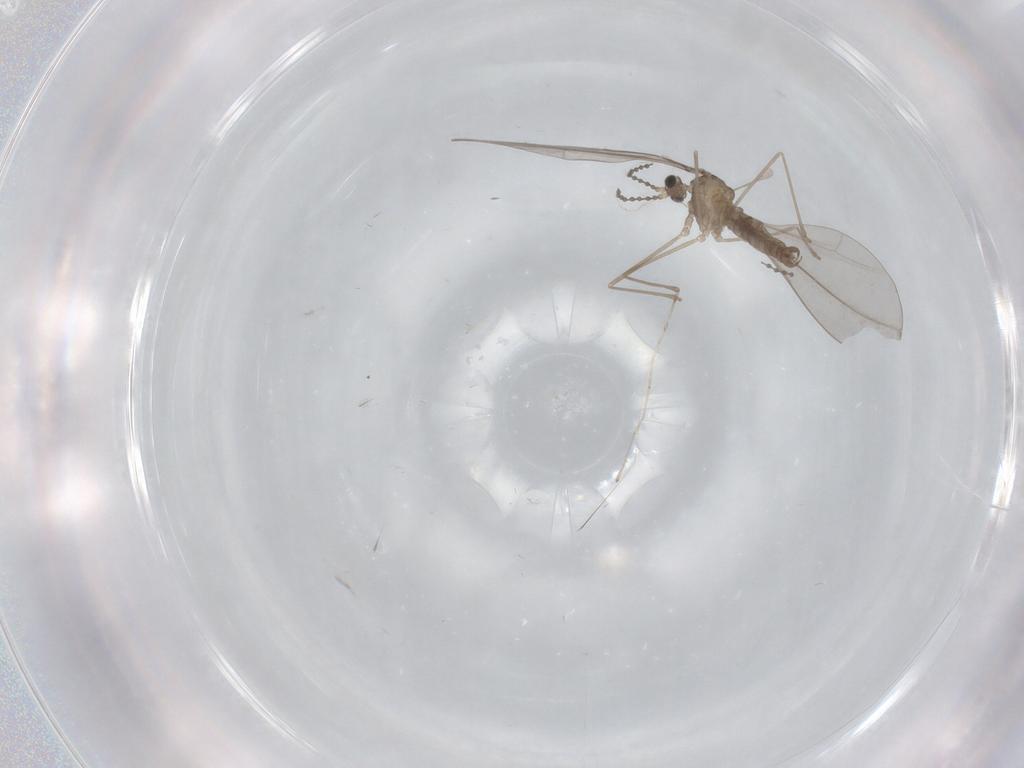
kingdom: Animalia
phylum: Arthropoda
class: Insecta
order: Diptera
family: Cecidomyiidae
